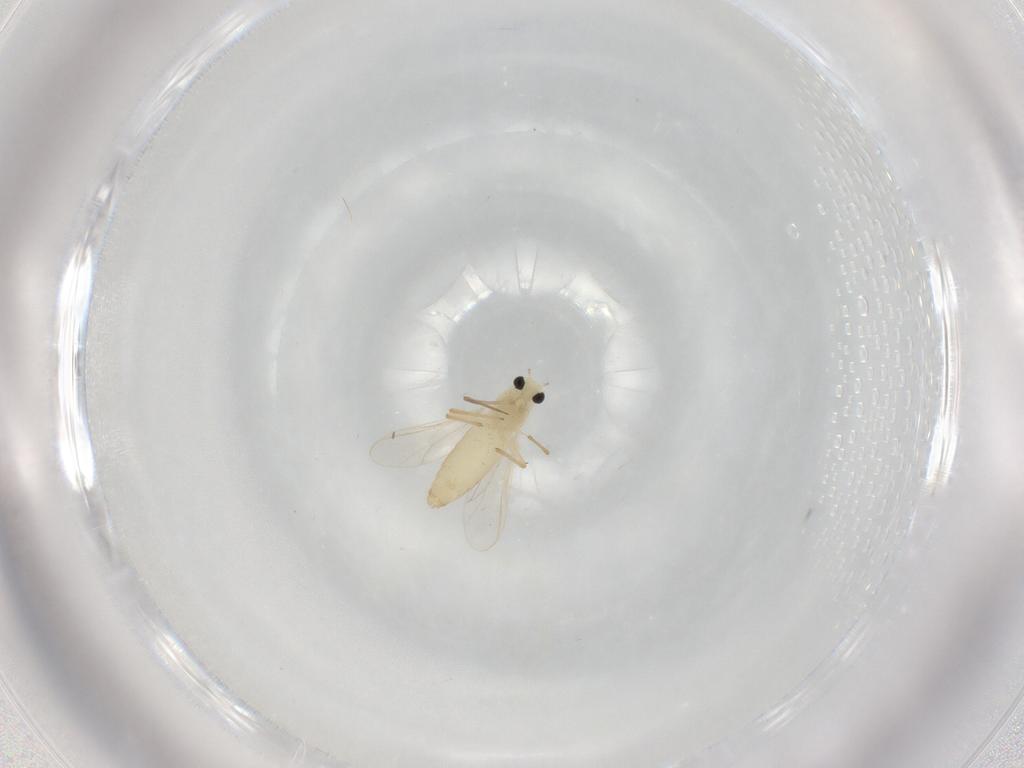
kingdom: Animalia
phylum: Arthropoda
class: Insecta
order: Diptera
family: Chironomidae
